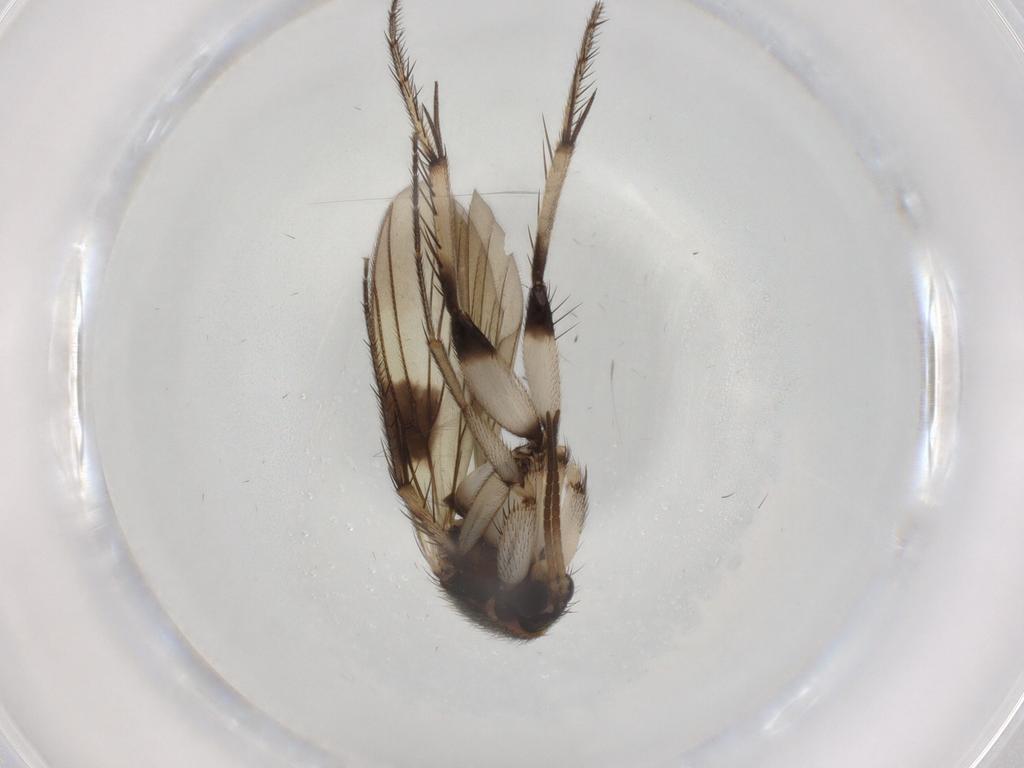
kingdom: Animalia
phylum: Arthropoda
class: Insecta
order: Diptera
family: Mycetophilidae
